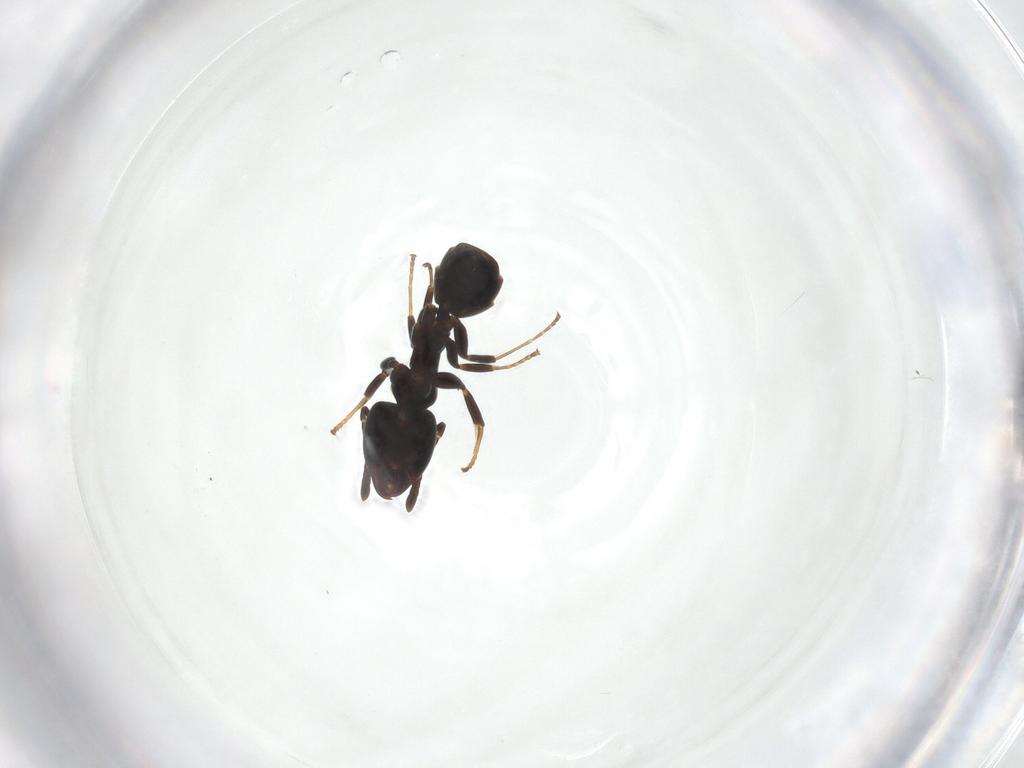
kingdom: Animalia
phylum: Arthropoda
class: Insecta
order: Hymenoptera
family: Formicidae
